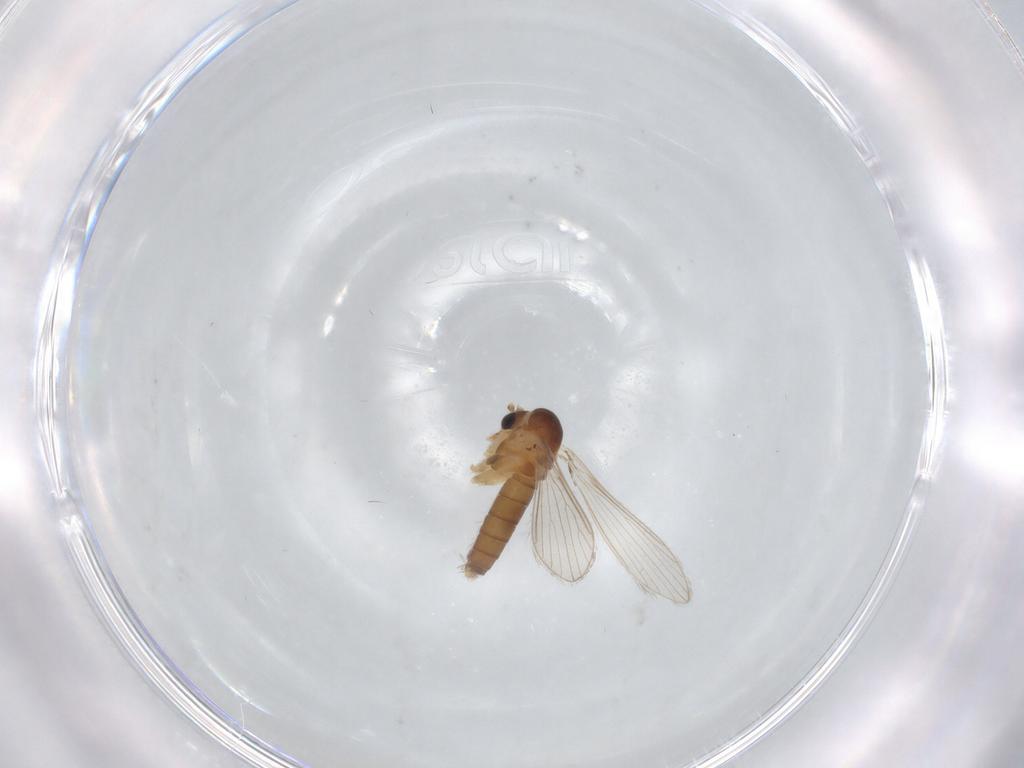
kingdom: Animalia
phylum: Arthropoda
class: Insecta
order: Diptera
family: Psychodidae
